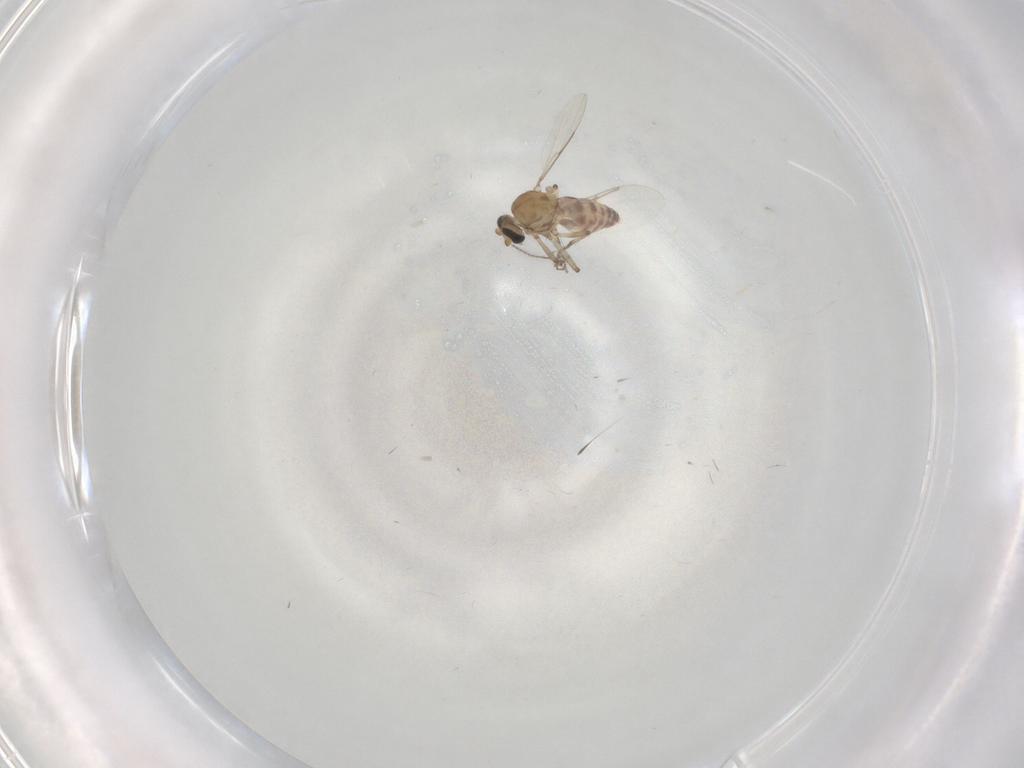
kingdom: Animalia
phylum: Arthropoda
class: Insecta
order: Diptera
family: Ceratopogonidae
